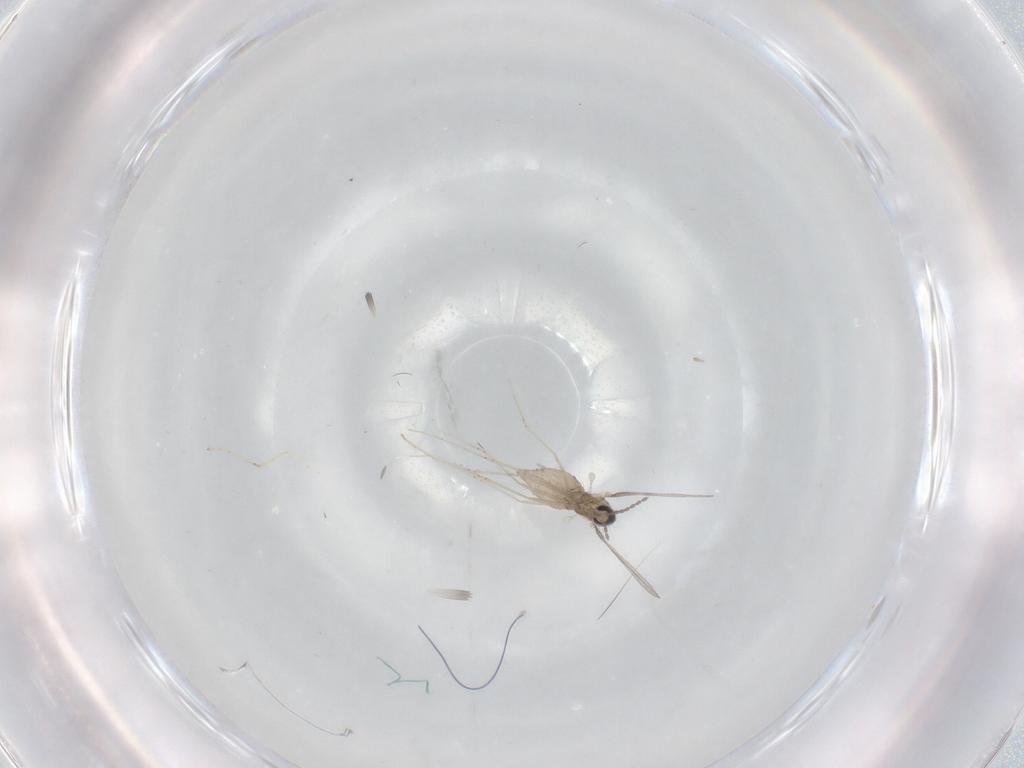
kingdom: Animalia
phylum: Arthropoda
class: Insecta
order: Diptera
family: Cecidomyiidae
